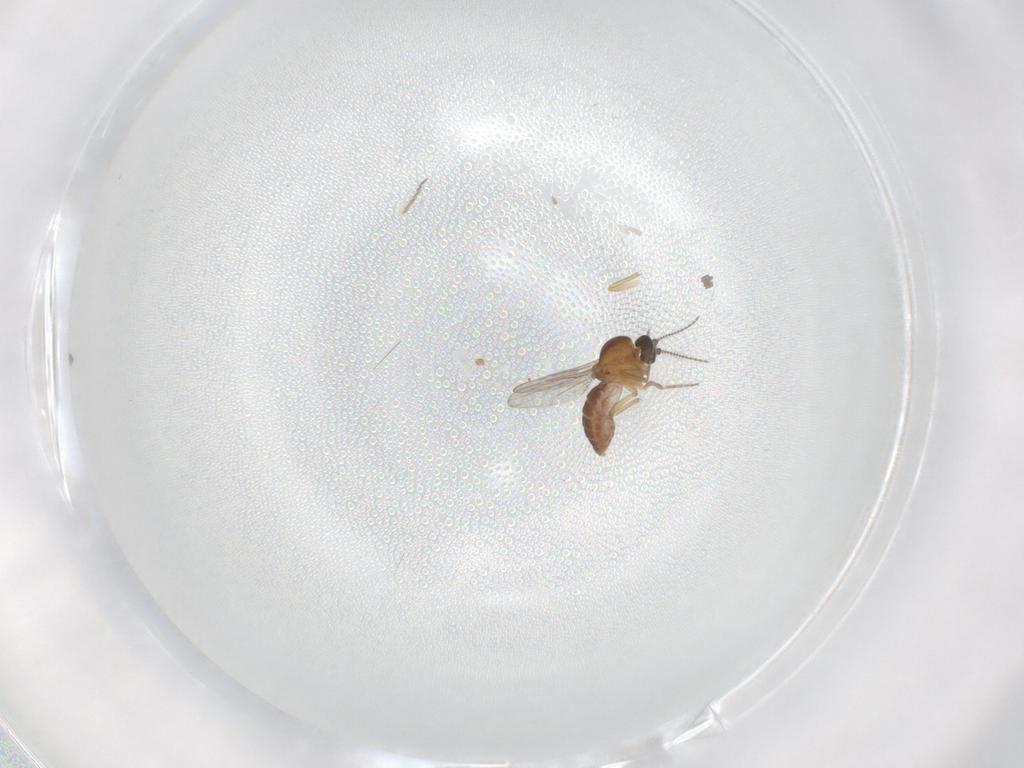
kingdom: Animalia
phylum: Arthropoda
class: Insecta
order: Diptera
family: Ceratopogonidae
